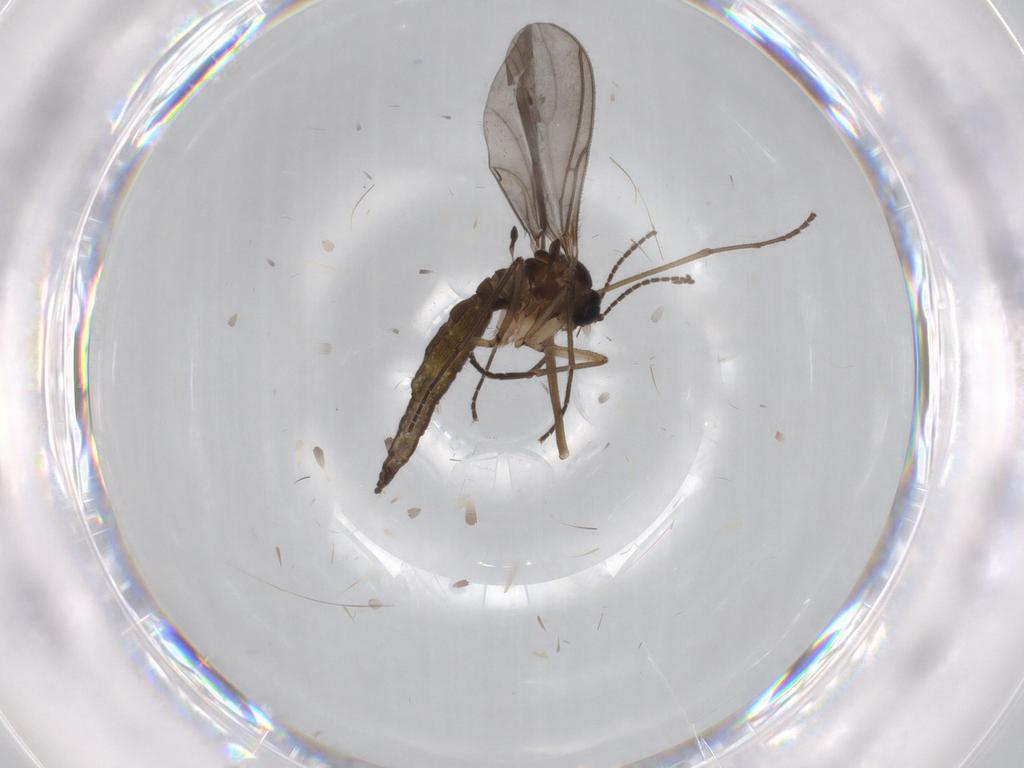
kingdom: Animalia
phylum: Arthropoda
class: Insecta
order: Diptera
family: Sciaridae
